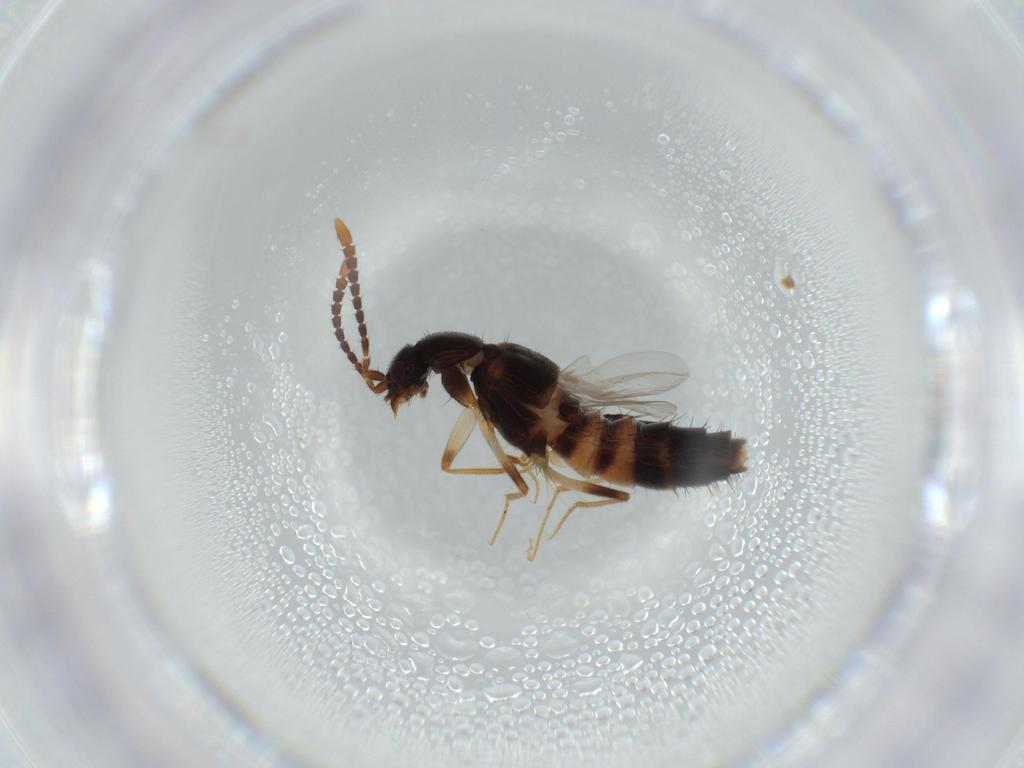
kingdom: Animalia
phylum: Arthropoda
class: Insecta
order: Coleoptera
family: Staphylinidae
